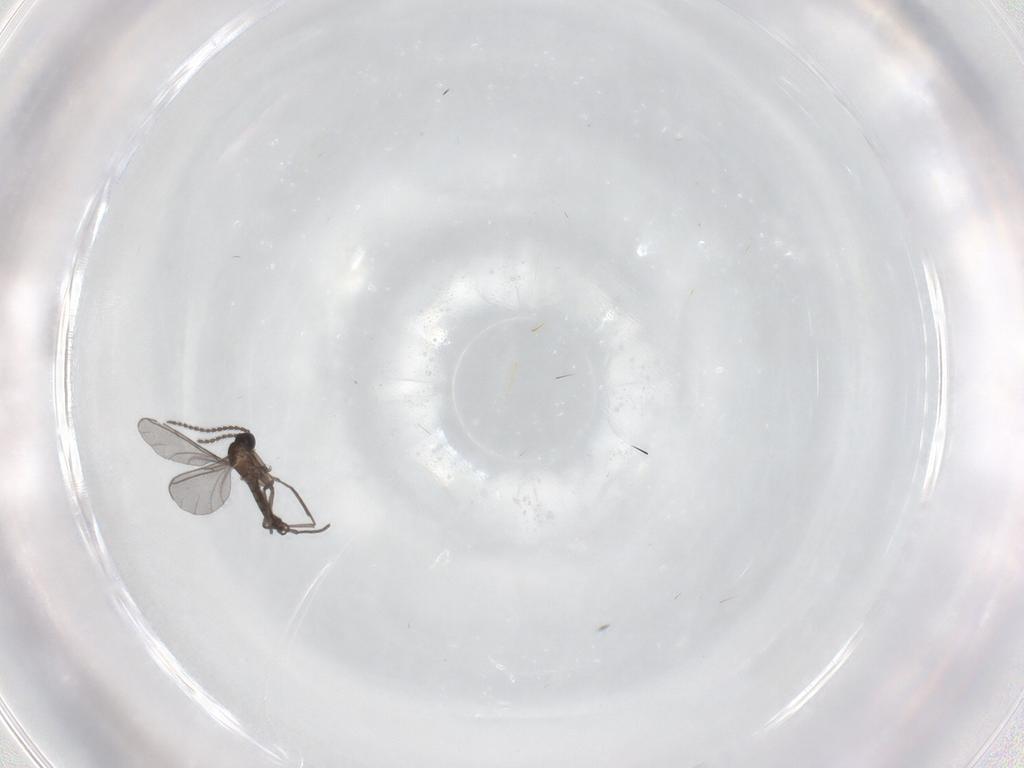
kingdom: Animalia
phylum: Arthropoda
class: Insecta
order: Diptera
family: Ceratopogonidae
